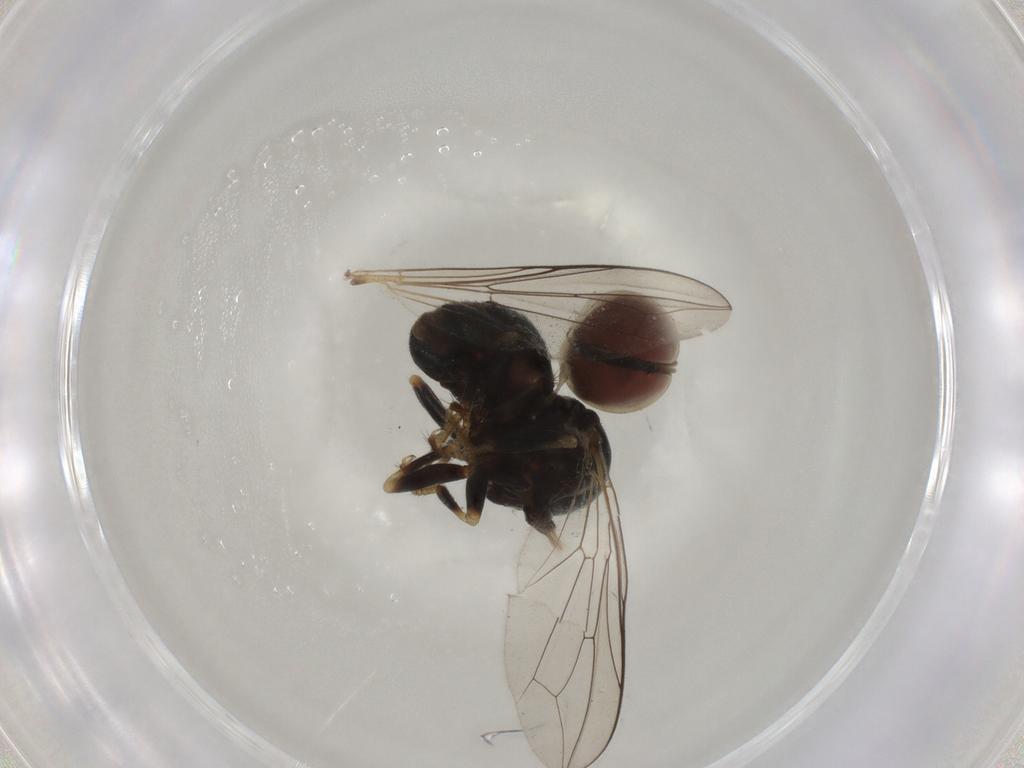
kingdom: Animalia
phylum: Arthropoda
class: Insecta
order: Diptera
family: Pipunculidae
